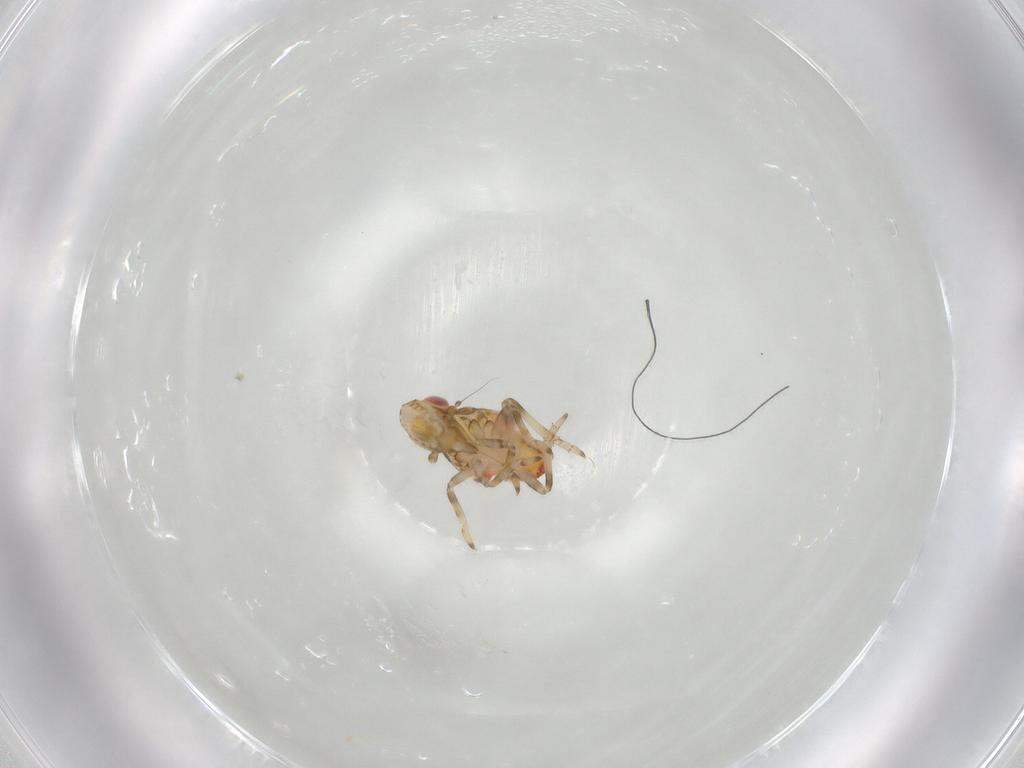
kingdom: Animalia
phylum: Arthropoda
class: Insecta
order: Hemiptera
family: Tropiduchidae
